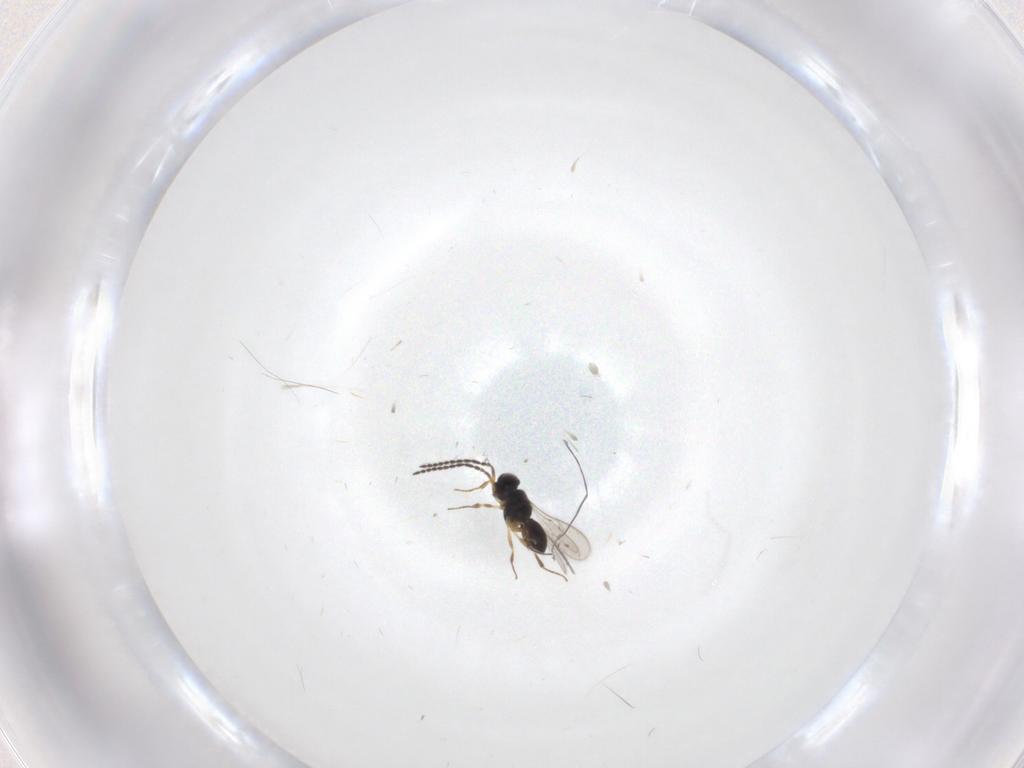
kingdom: Animalia
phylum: Arthropoda
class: Insecta
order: Hymenoptera
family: Scelionidae
